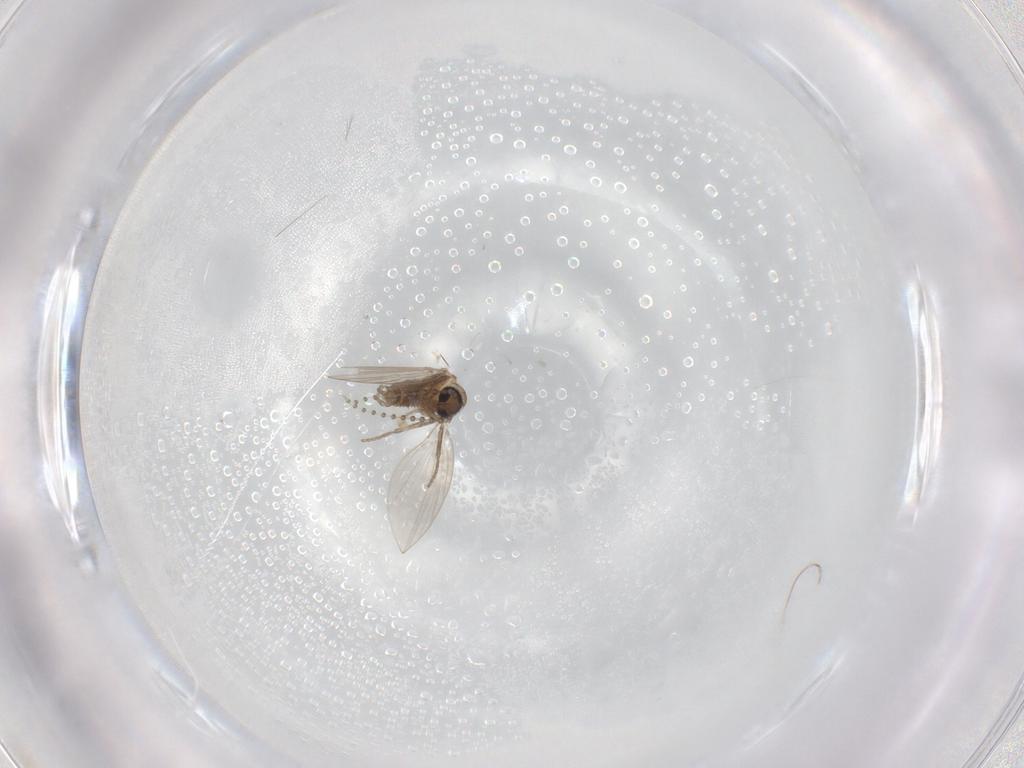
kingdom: Animalia
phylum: Arthropoda
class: Insecta
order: Diptera
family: Psychodidae
